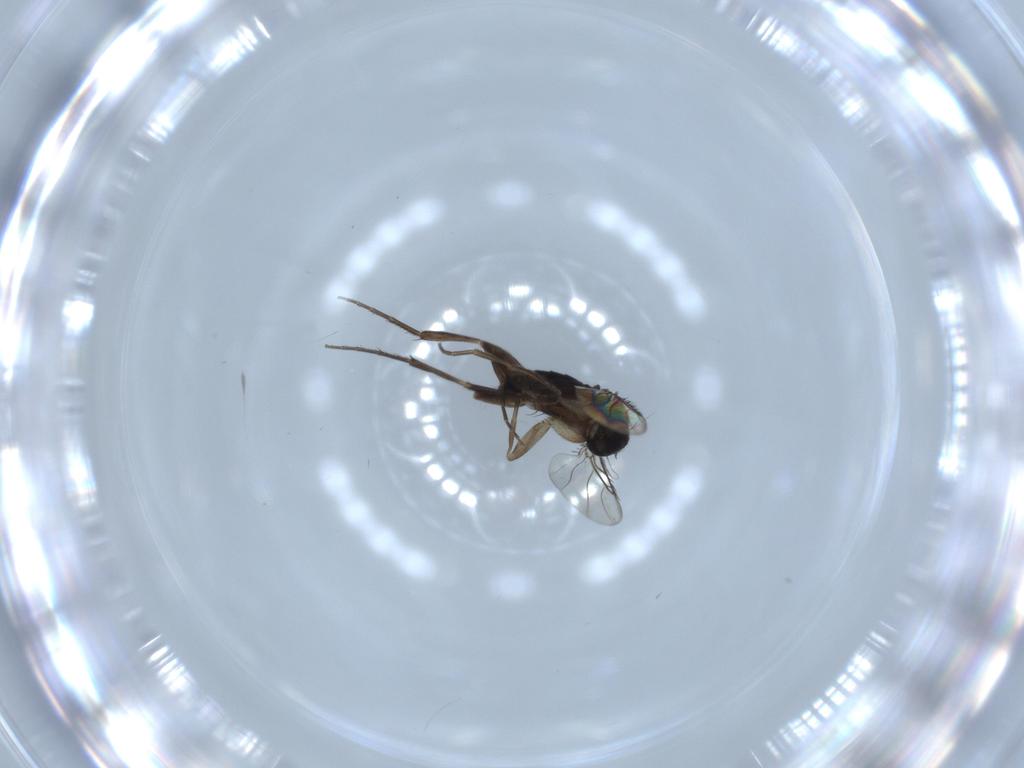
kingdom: Animalia
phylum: Arthropoda
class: Insecta
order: Diptera
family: Phoridae
